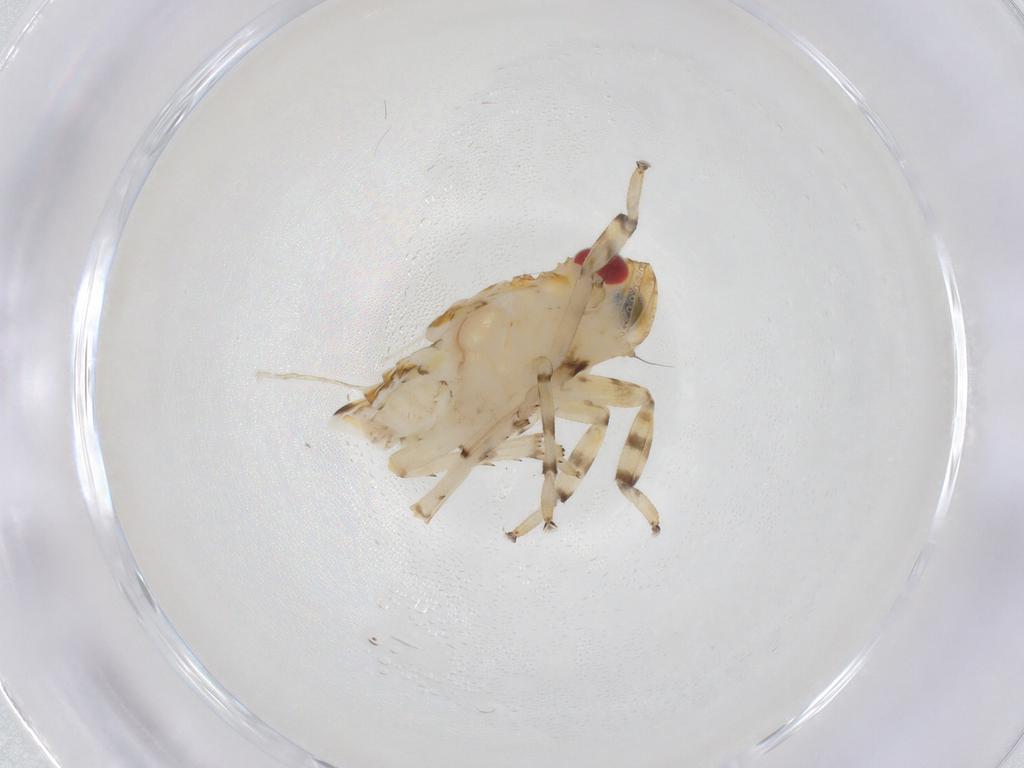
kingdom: Animalia
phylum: Arthropoda
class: Insecta
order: Hemiptera
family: Issidae
